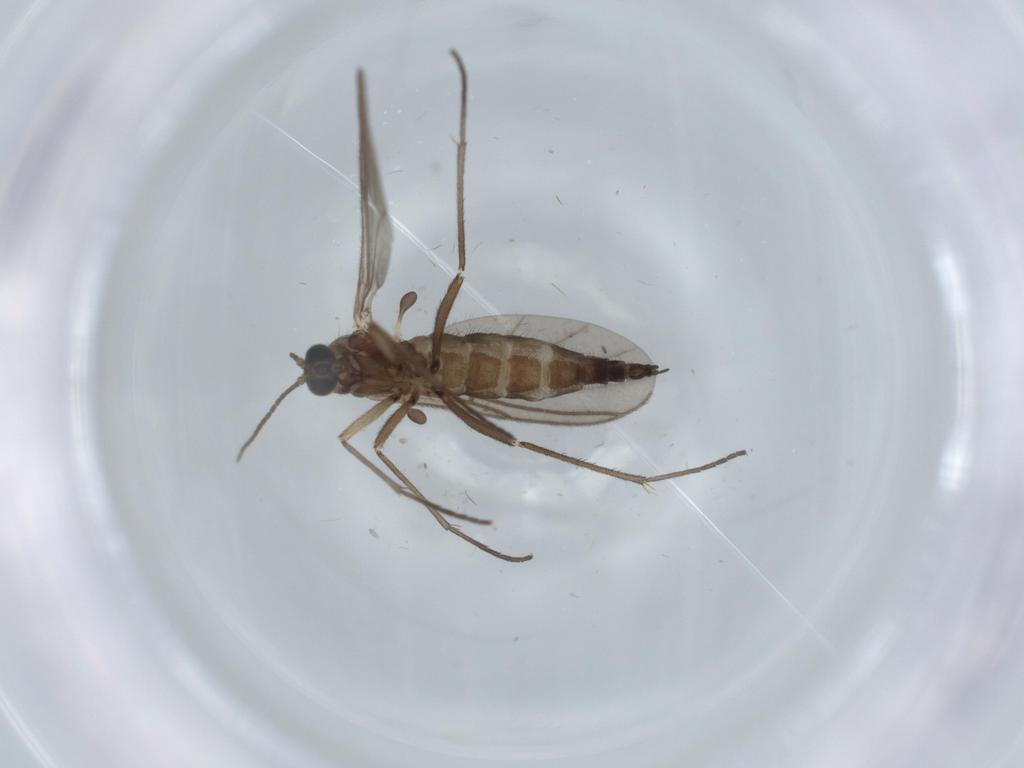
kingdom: Animalia
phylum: Arthropoda
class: Insecta
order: Diptera
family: Sciaridae
